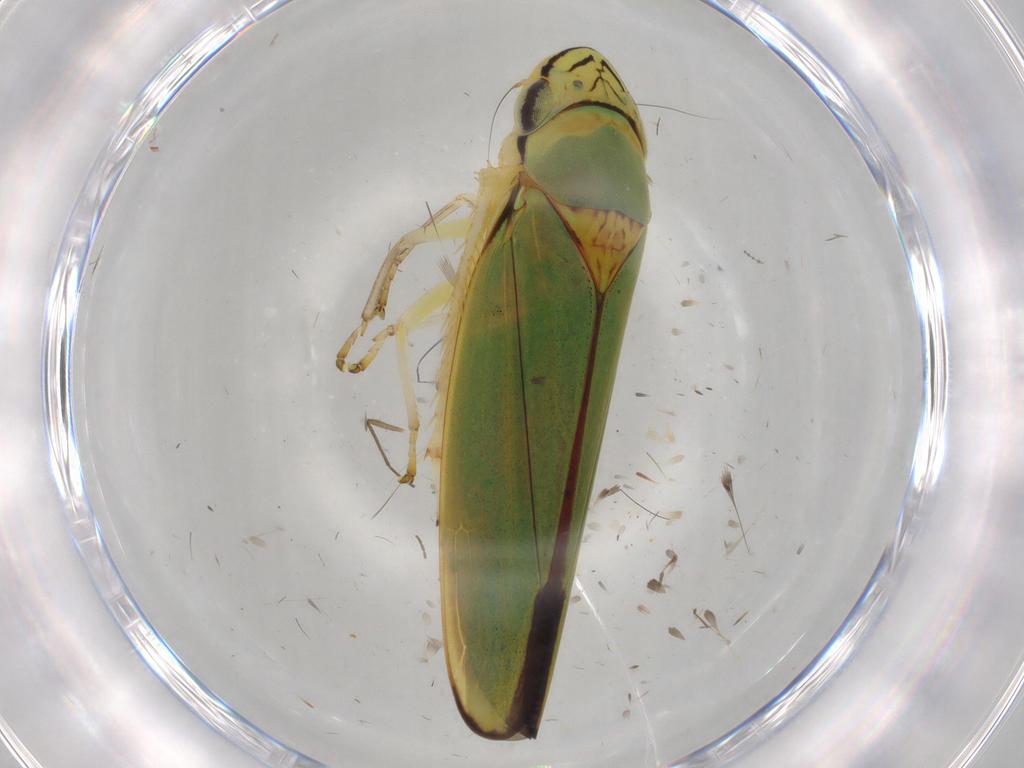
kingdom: Animalia
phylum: Arthropoda
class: Insecta
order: Hemiptera
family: Cicadellidae
